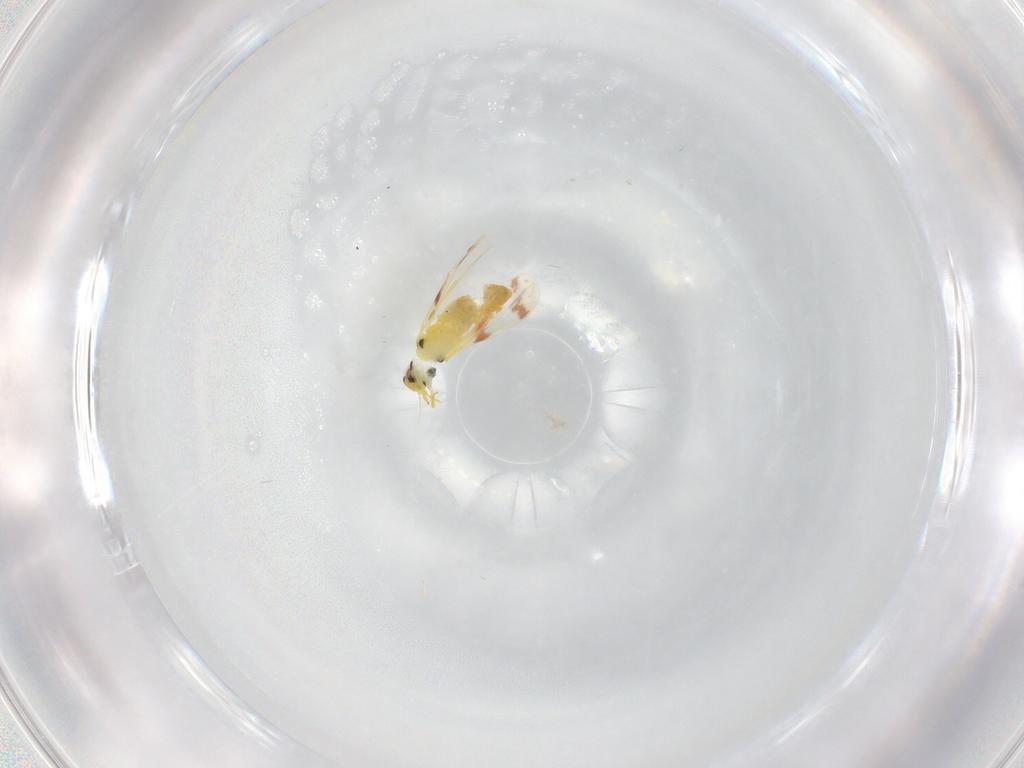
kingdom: Animalia
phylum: Arthropoda
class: Insecta
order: Hemiptera
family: Aleyrodidae
